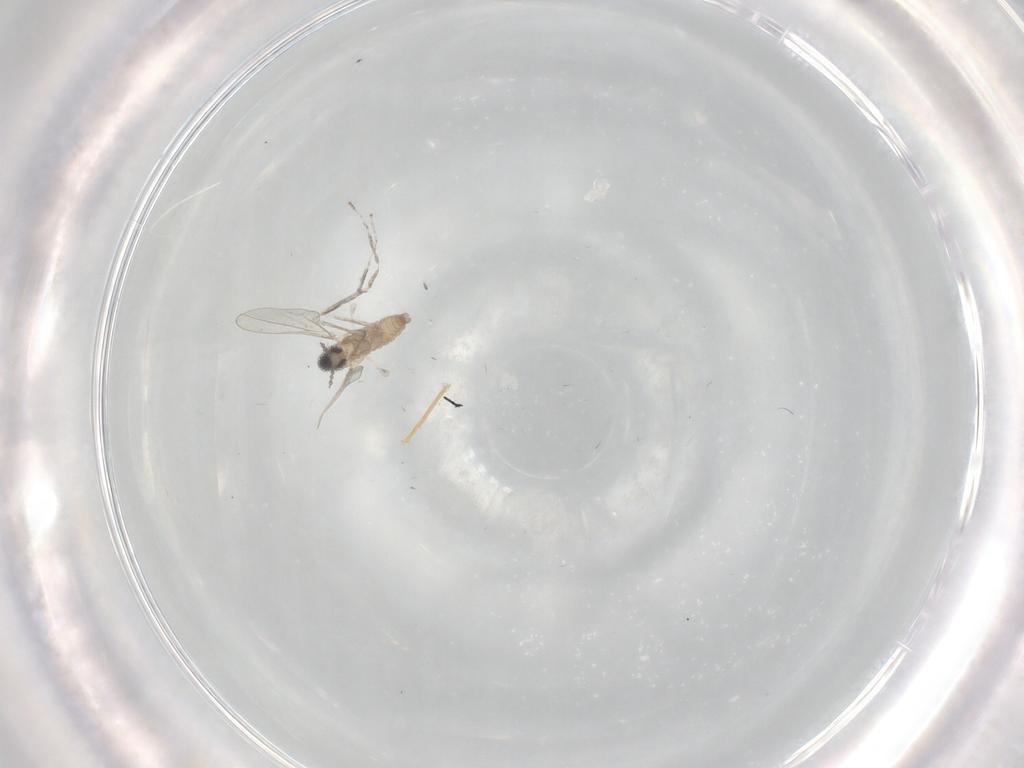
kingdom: Animalia
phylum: Arthropoda
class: Insecta
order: Diptera
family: Cecidomyiidae
